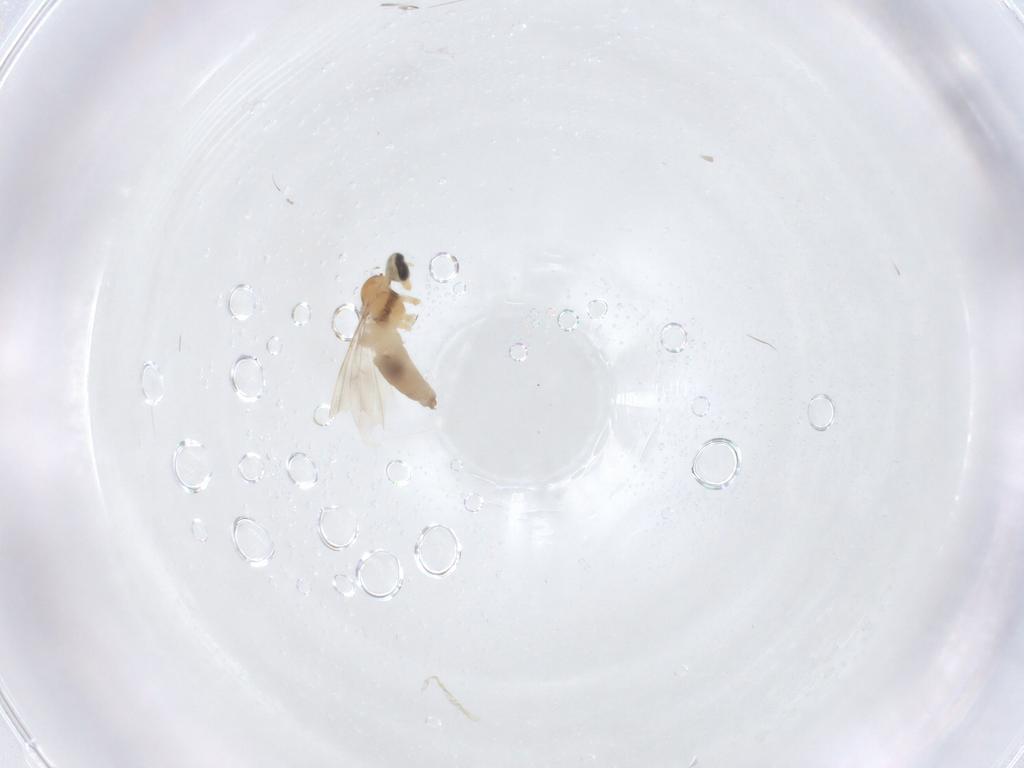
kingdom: Animalia
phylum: Arthropoda
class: Insecta
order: Diptera
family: Cecidomyiidae
